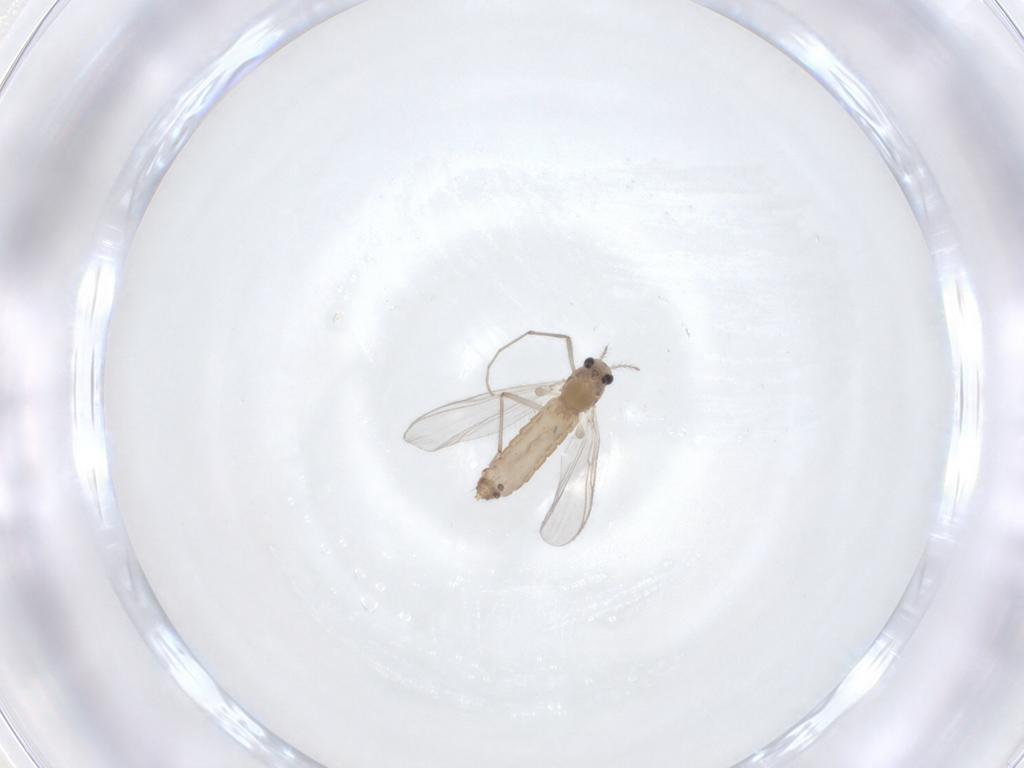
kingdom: Animalia
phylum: Arthropoda
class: Insecta
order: Diptera
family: Chironomidae
